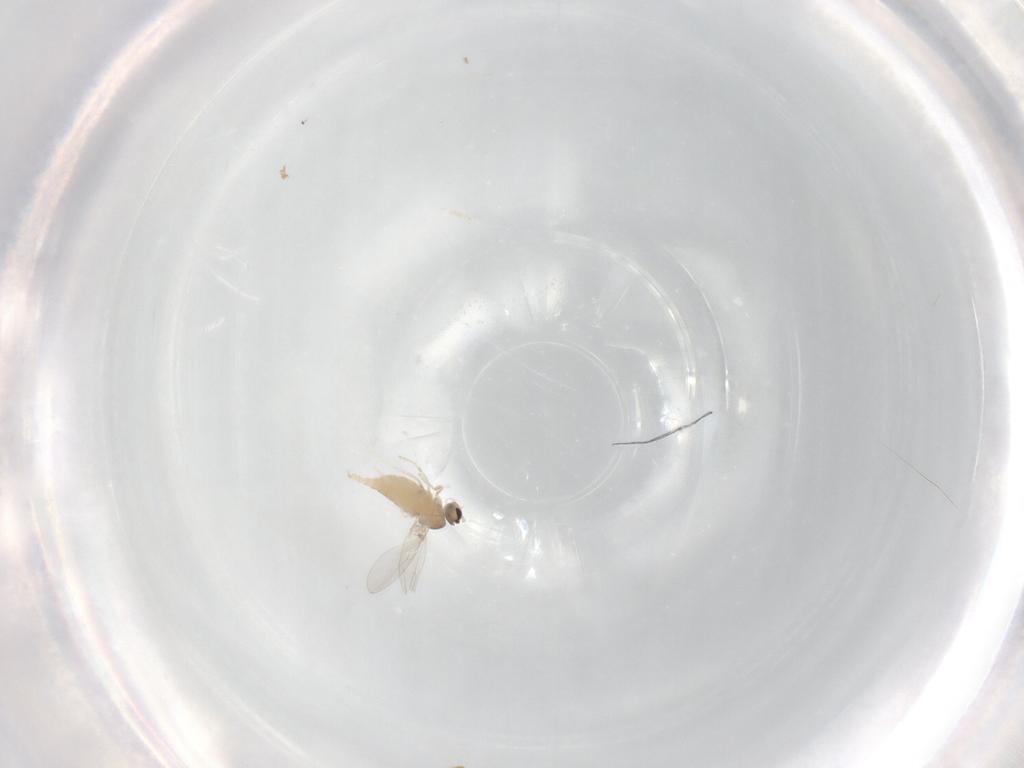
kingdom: Animalia
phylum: Arthropoda
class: Insecta
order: Diptera
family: Cecidomyiidae
